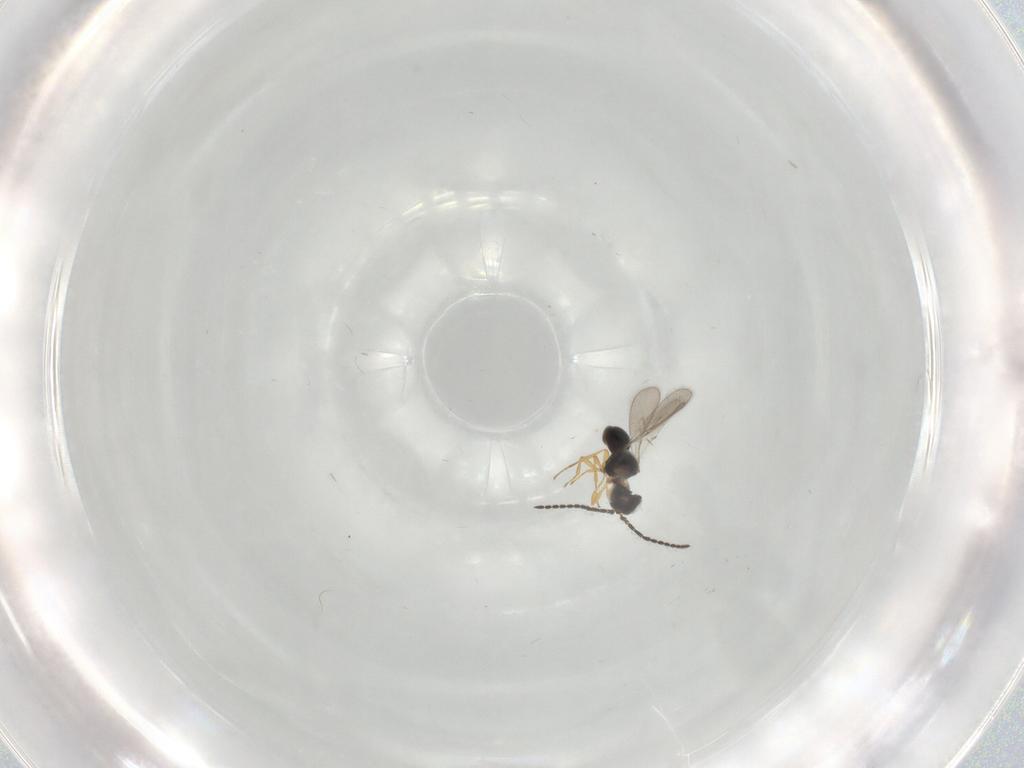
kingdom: Animalia
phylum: Arthropoda
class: Insecta
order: Hymenoptera
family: Scelionidae
